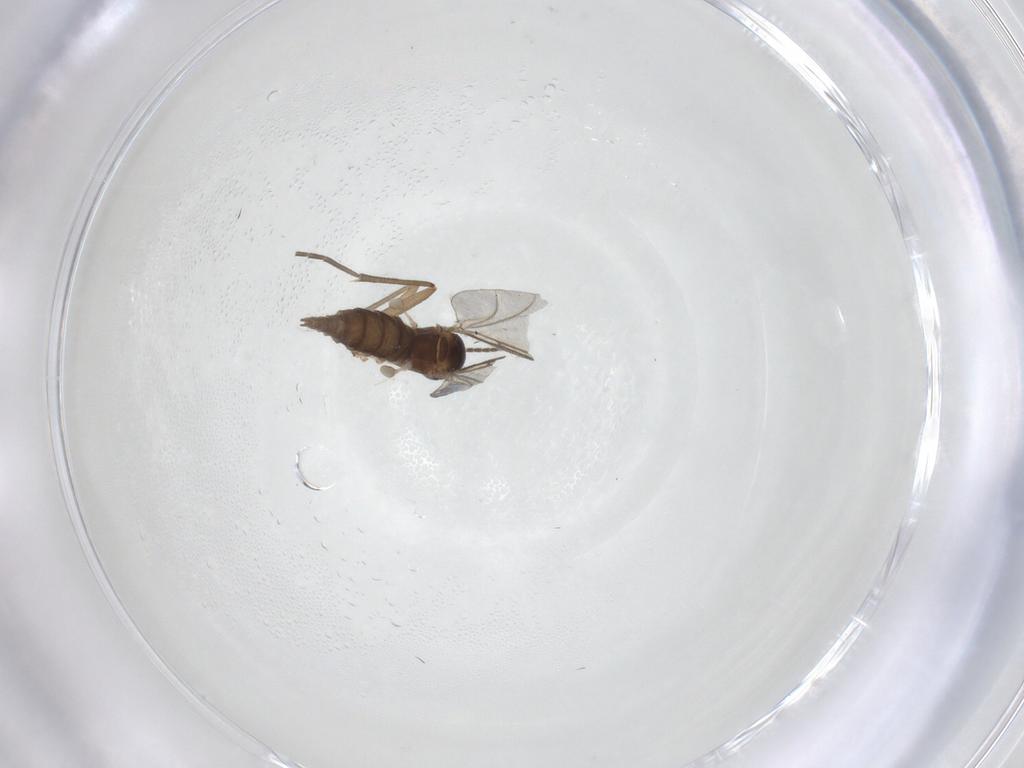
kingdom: Animalia
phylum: Arthropoda
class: Insecta
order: Diptera
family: Sciaridae
